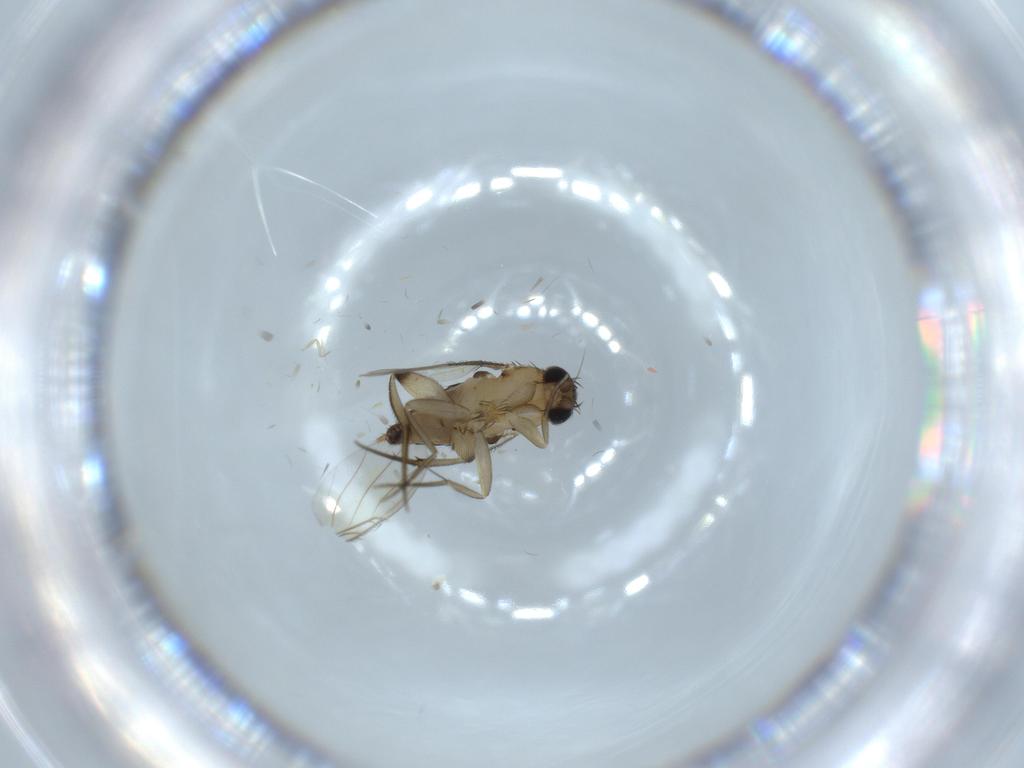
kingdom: Animalia
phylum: Arthropoda
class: Insecta
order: Diptera
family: Phoridae
